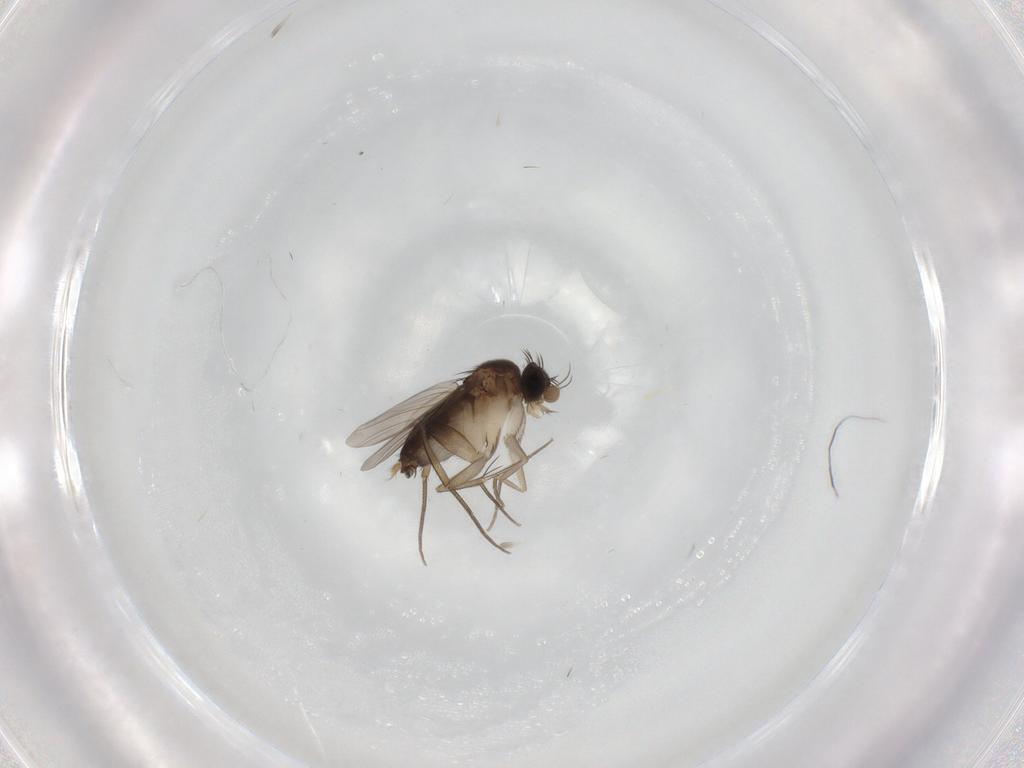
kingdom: Animalia
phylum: Arthropoda
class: Insecta
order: Diptera
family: Phoridae
